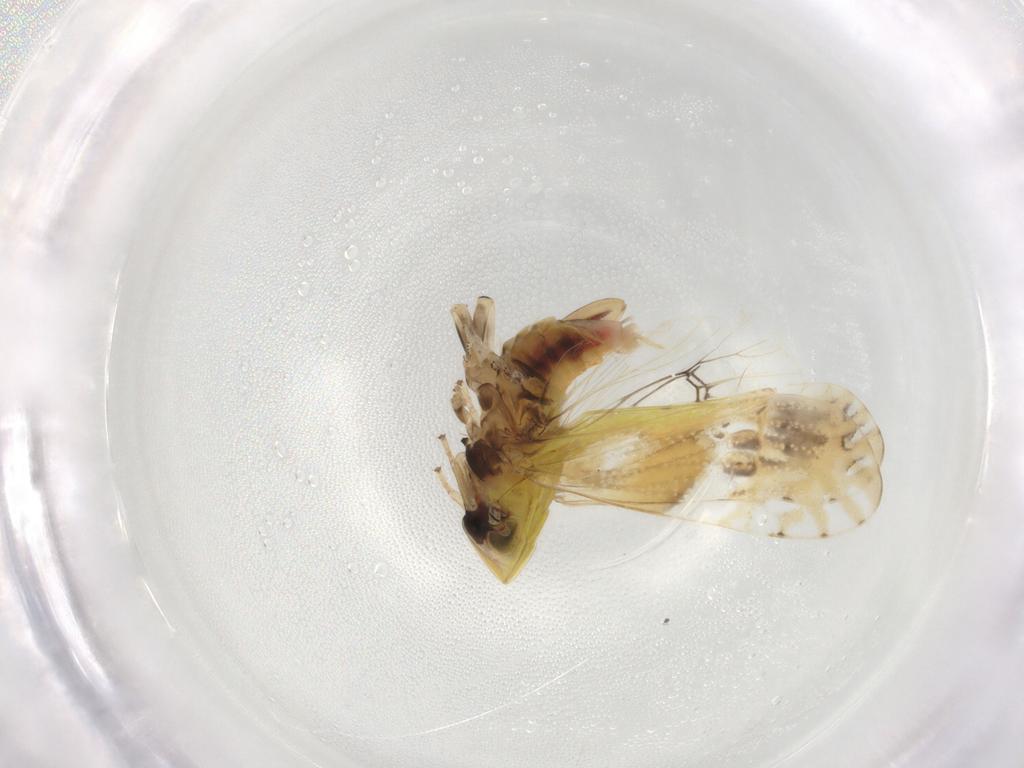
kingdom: Animalia
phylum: Arthropoda
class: Insecta
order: Hemiptera
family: Delphacidae
